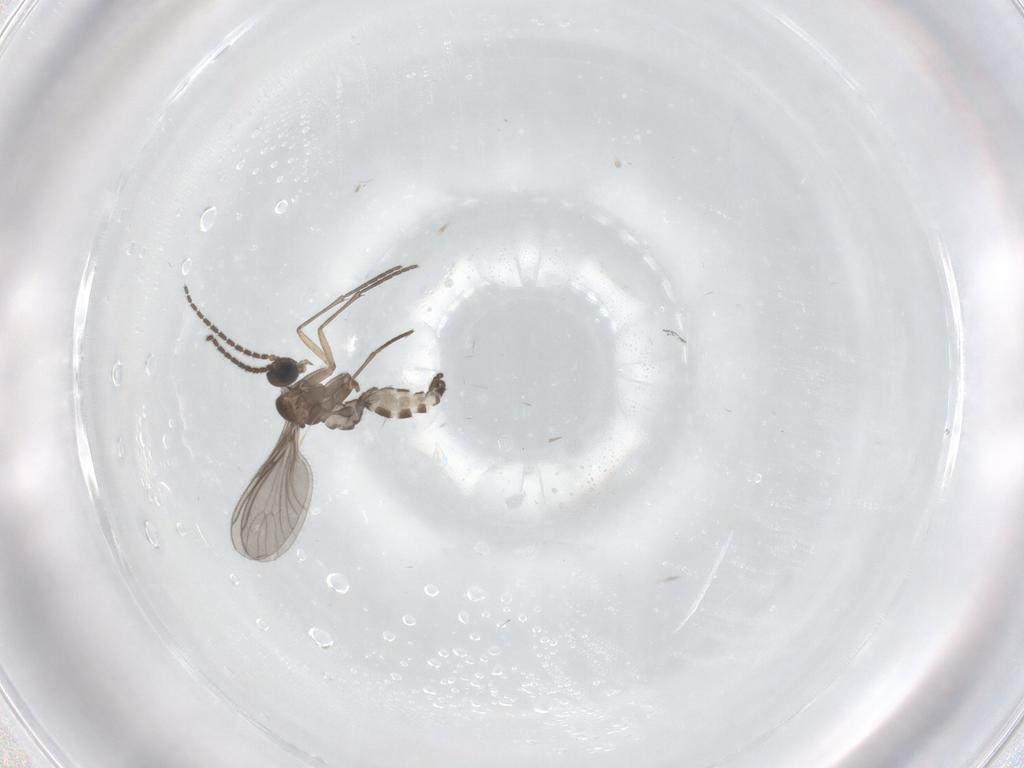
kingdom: Animalia
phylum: Arthropoda
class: Insecta
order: Diptera
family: Sciaridae
